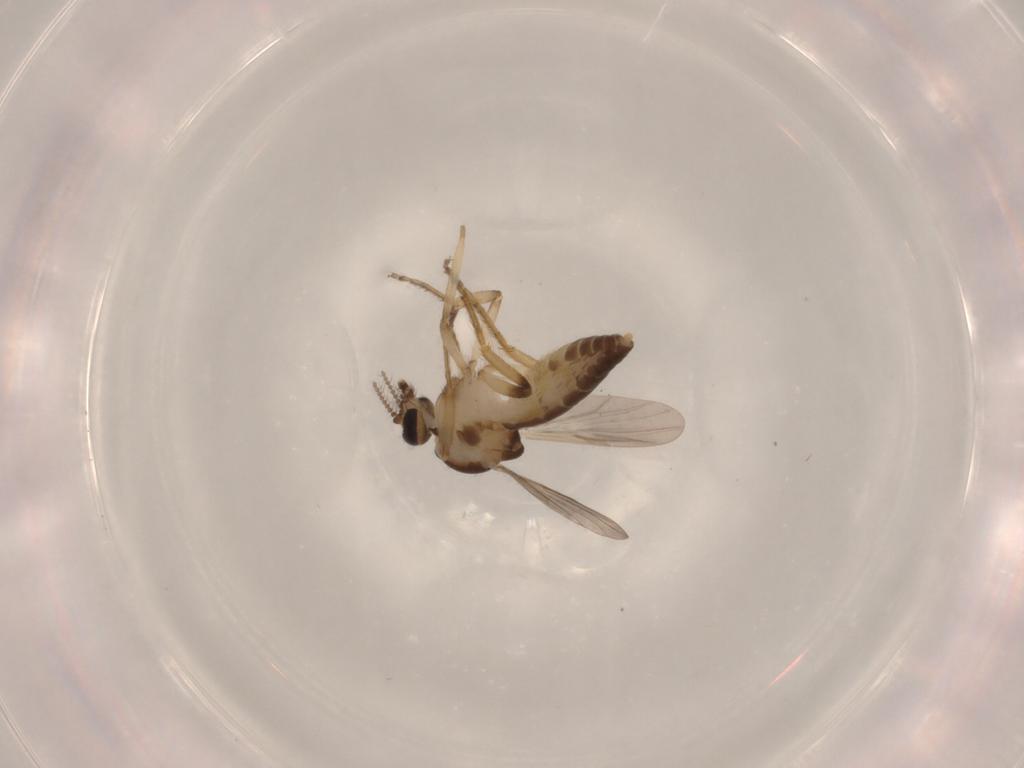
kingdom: Animalia
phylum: Arthropoda
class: Insecta
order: Diptera
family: Ceratopogonidae
